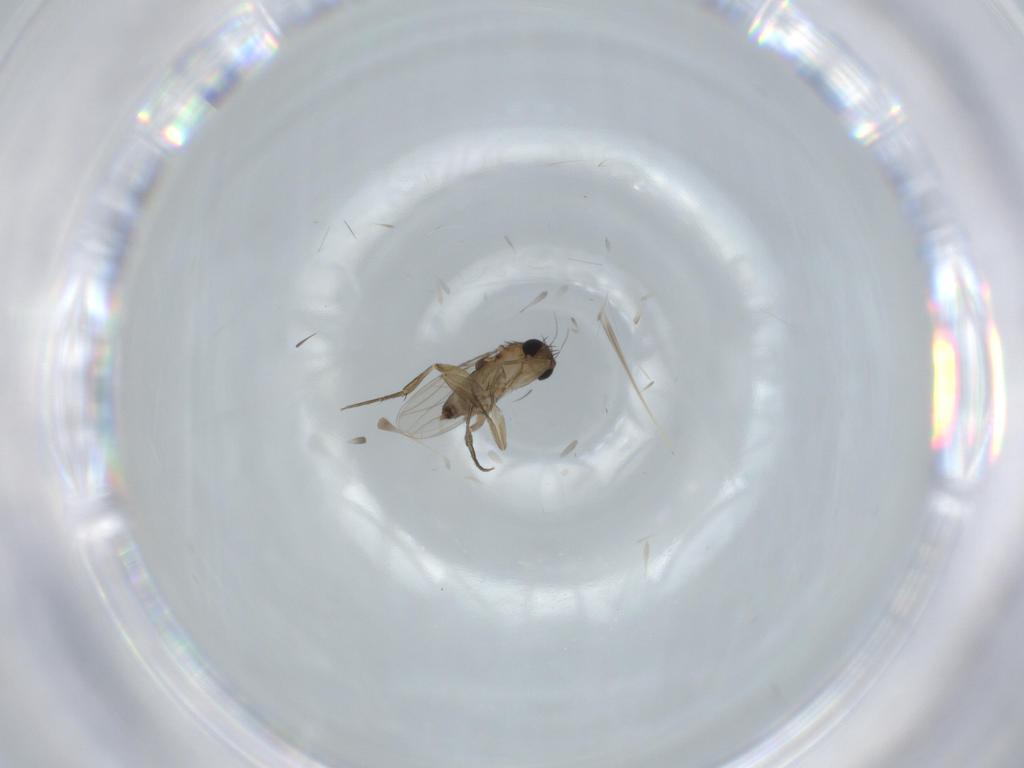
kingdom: Animalia
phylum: Arthropoda
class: Insecta
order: Diptera
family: Phoridae
